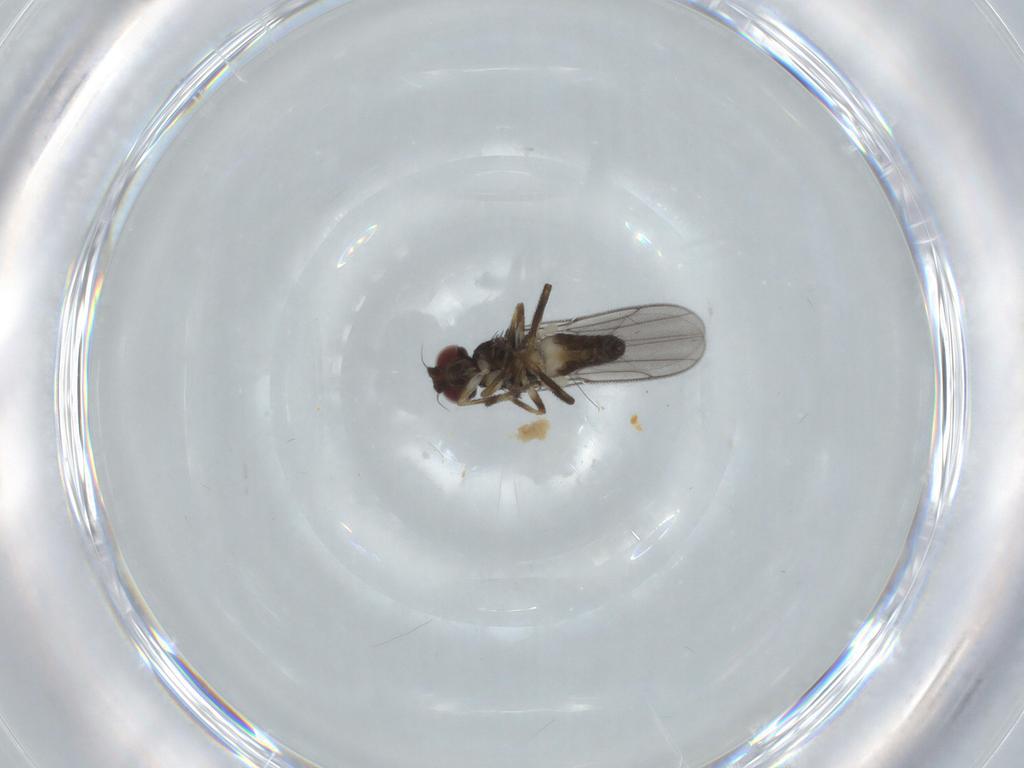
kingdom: Animalia
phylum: Arthropoda
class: Insecta
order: Diptera
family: Chloropidae
